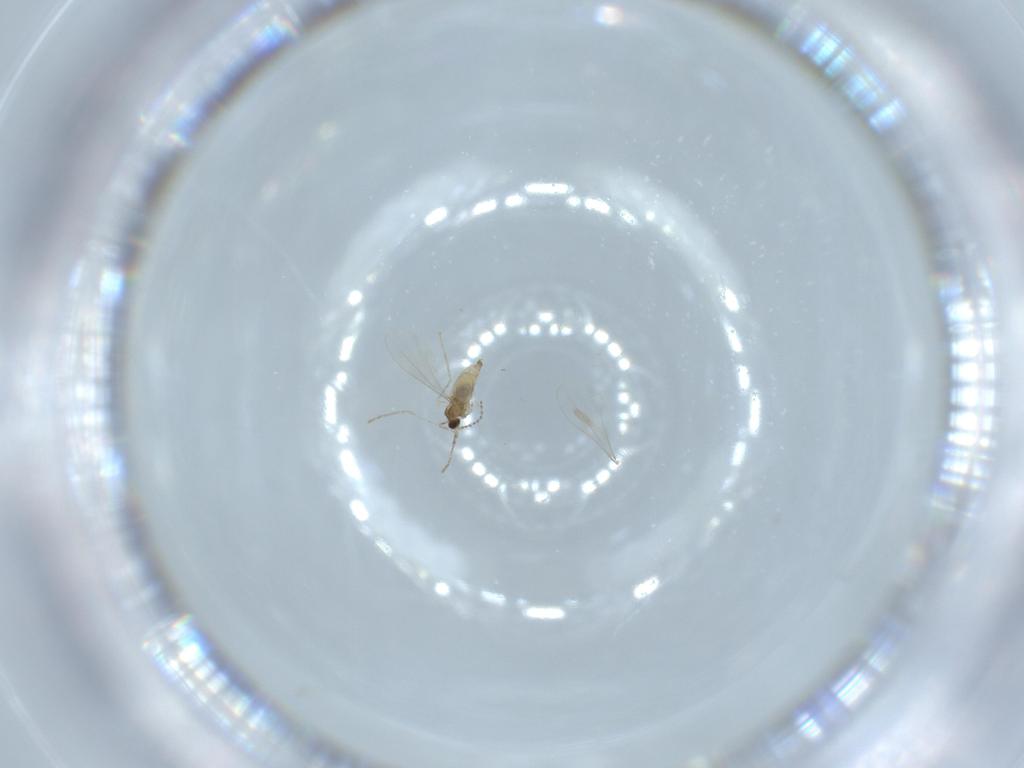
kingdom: Animalia
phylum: Arthropoda
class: Insecta
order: Diptera
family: Cecidomyiidae
